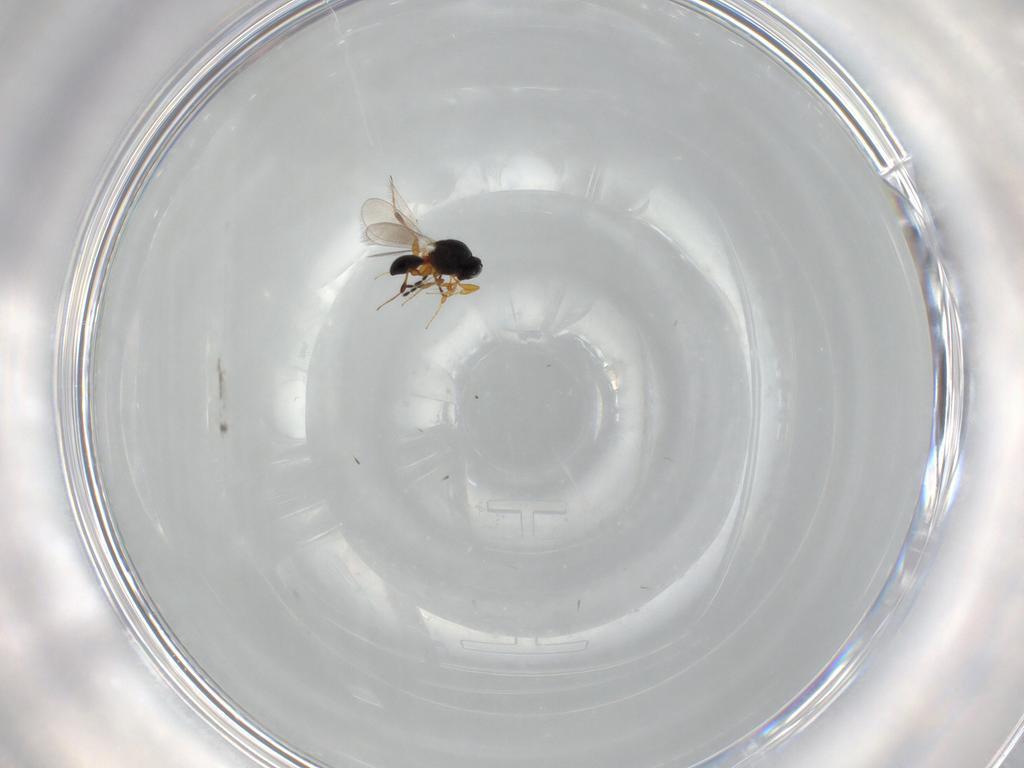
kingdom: Animalia
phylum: Arthropoda
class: Insecta
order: Hymenoptera
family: Platygastridae
